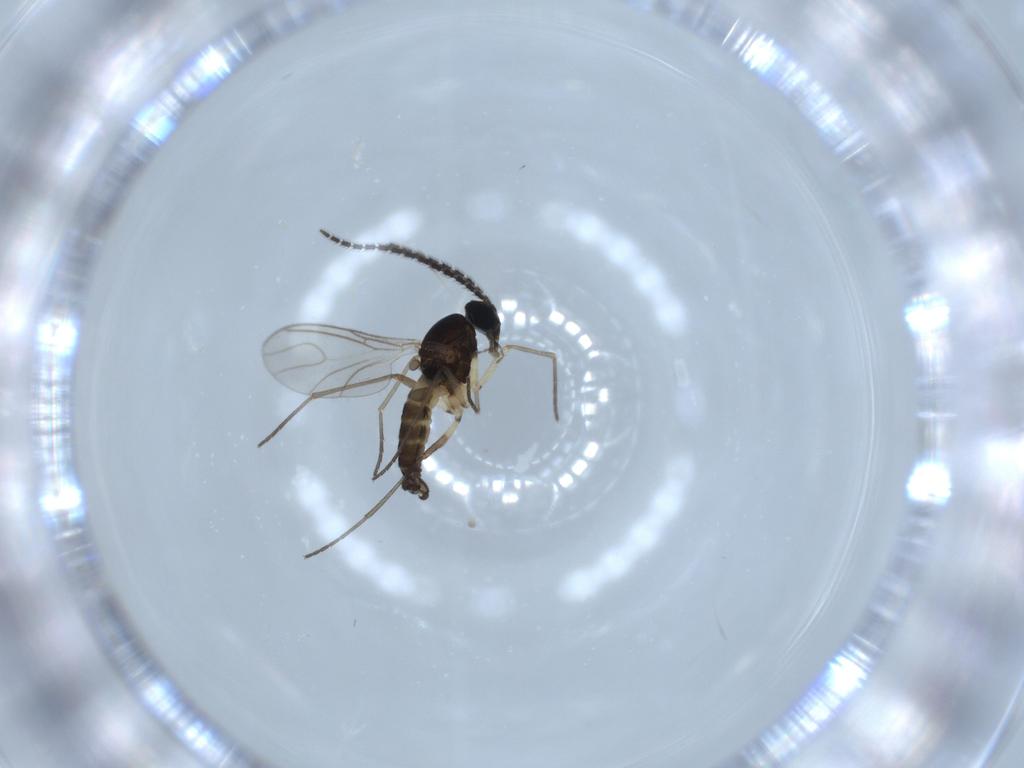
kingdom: Animalia
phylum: Arthropoda
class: Insecta
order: Diptera
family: Sciaridae
